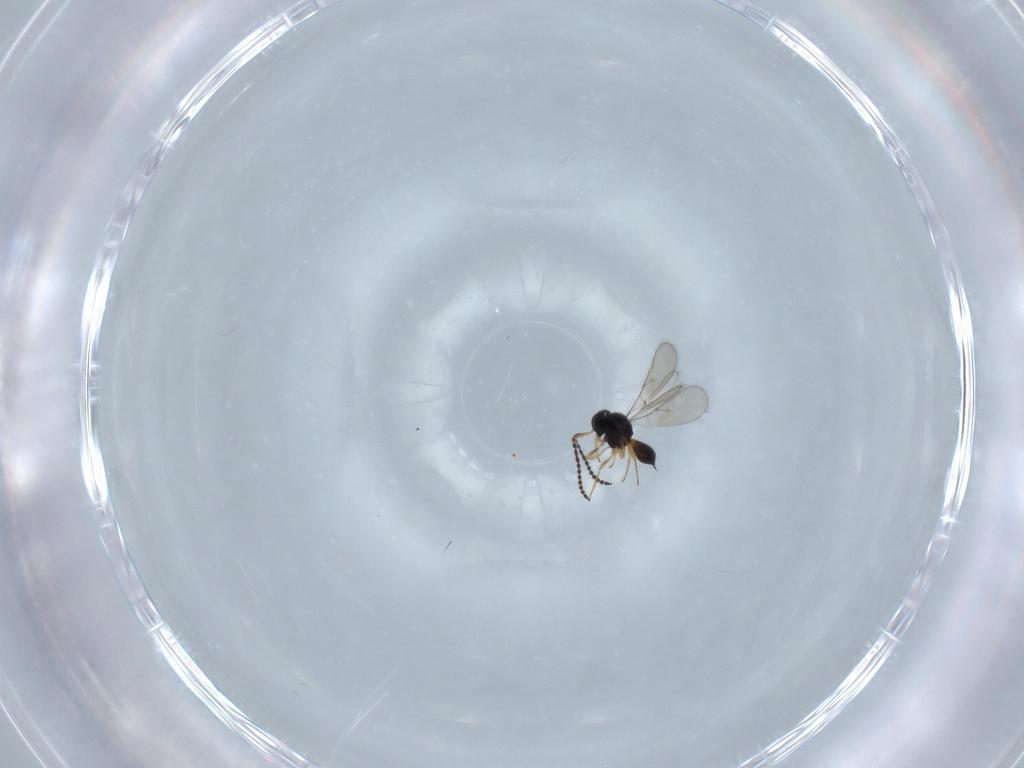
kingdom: Animalia
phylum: Arthropoda
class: Insecta
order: Hymenoptera
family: Scelionidae
